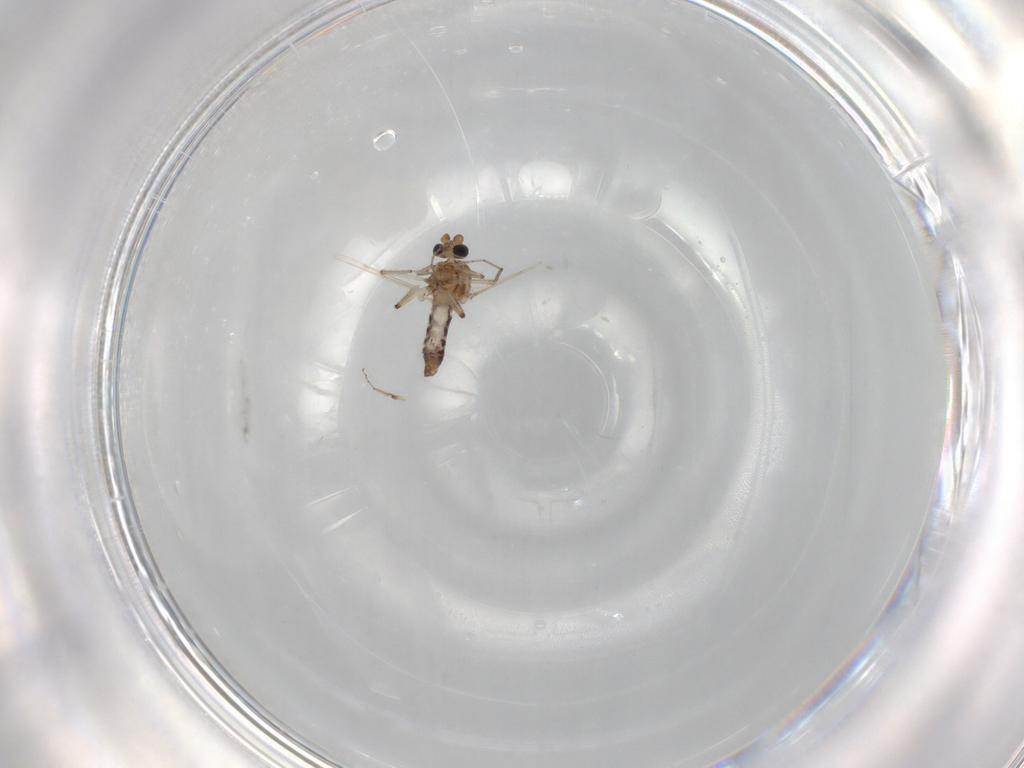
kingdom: Animalia
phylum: Arthropoda
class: Insecta
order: Diptera
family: Ceratopogonidae
